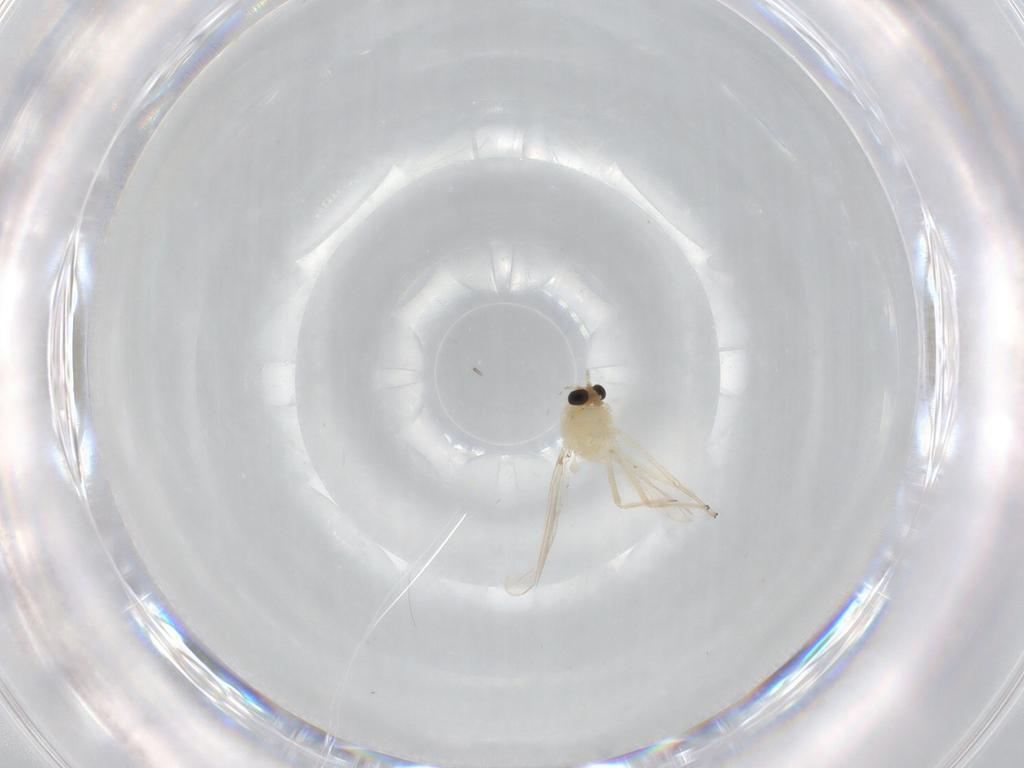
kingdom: Animalia
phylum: Arthropoda
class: Insecta
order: Diptera
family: Chironomidae
